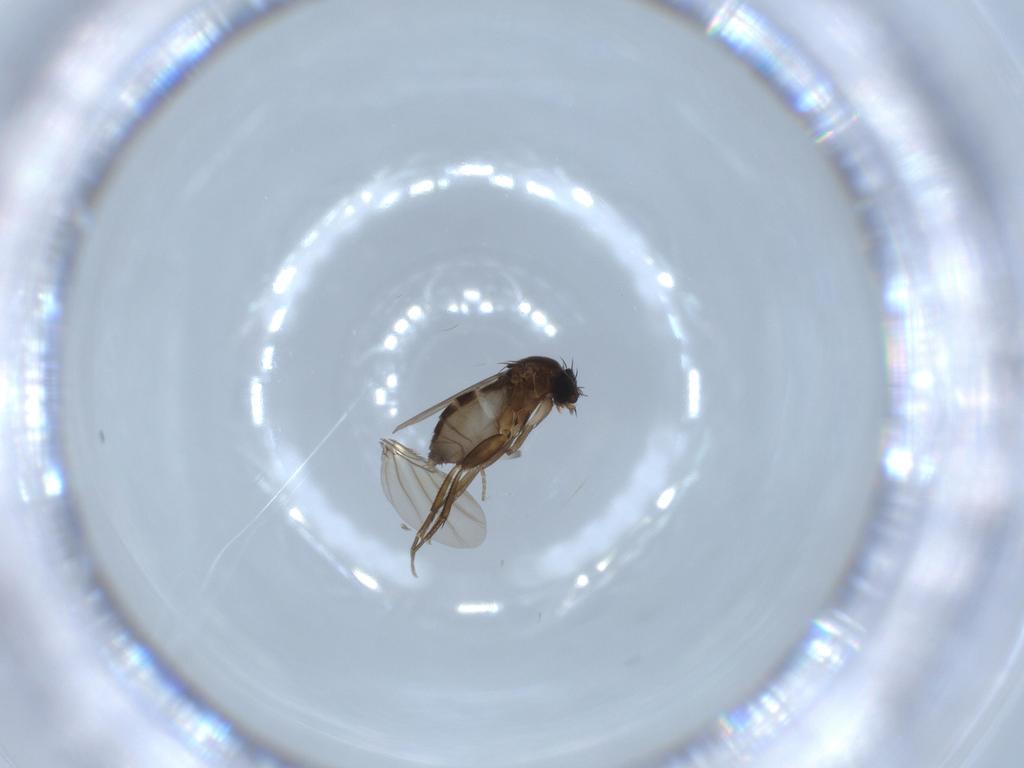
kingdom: Animalia
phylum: Arthropoda
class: Insecta
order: Diptera
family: Phoridae
